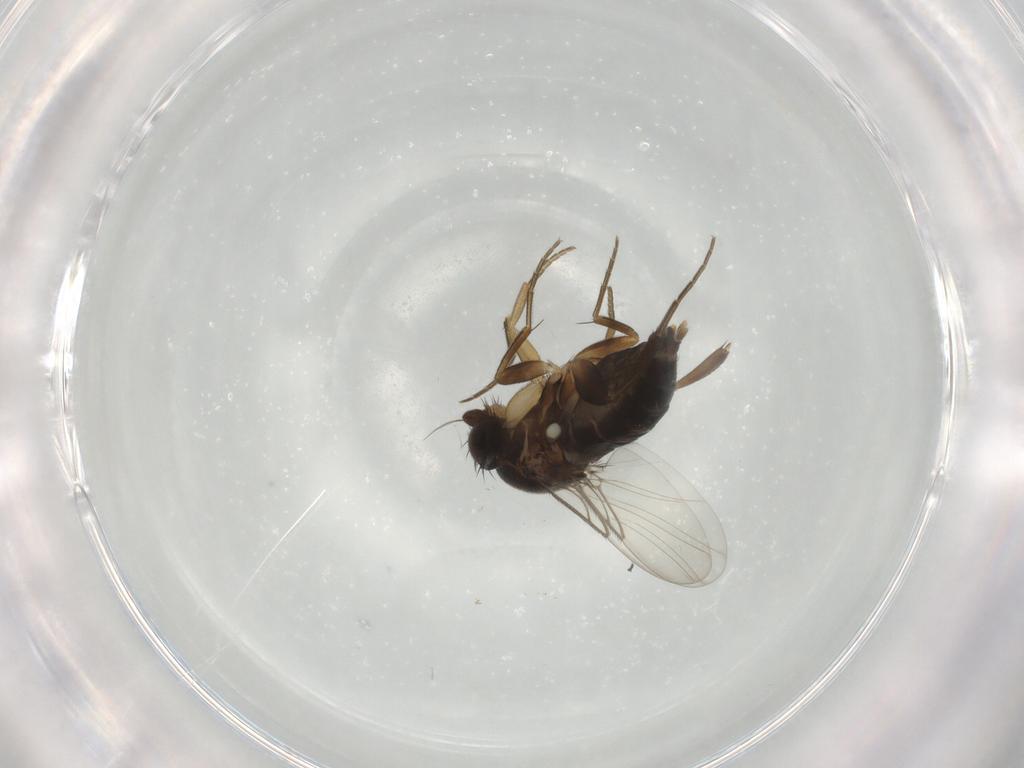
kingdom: Animalia
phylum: Arthropoda
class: Insecta
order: Diptera
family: Phoridae
